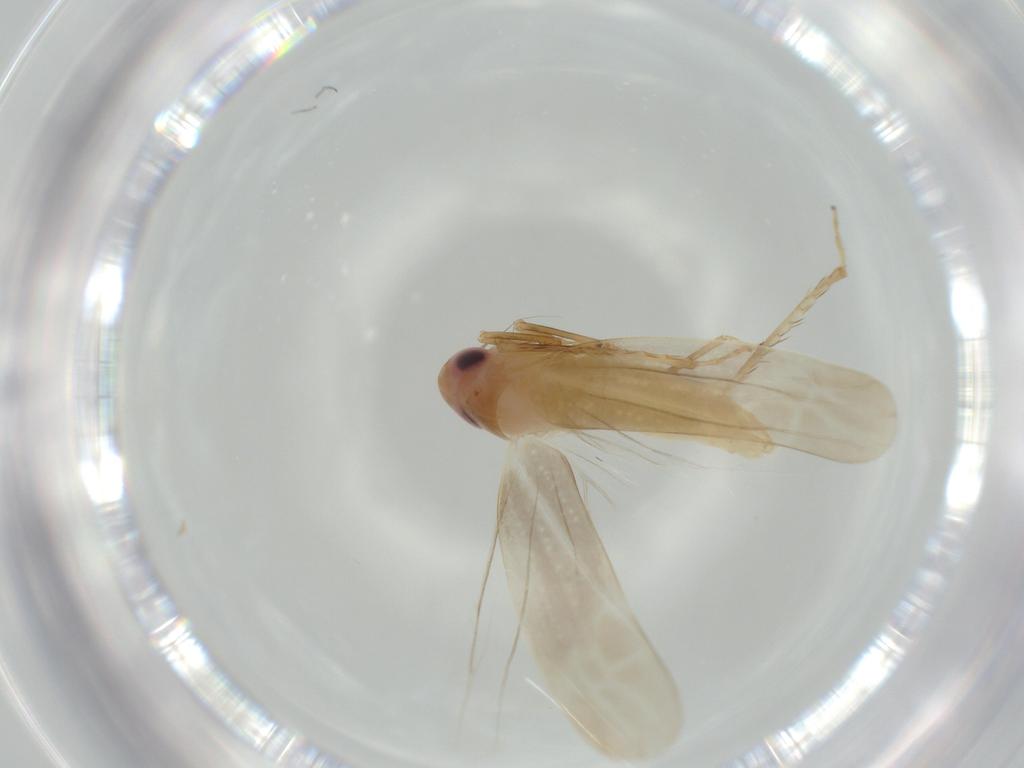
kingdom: Animalia
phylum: Arthropoda
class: Insecta
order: Hemiptera
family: Cicadellidae
